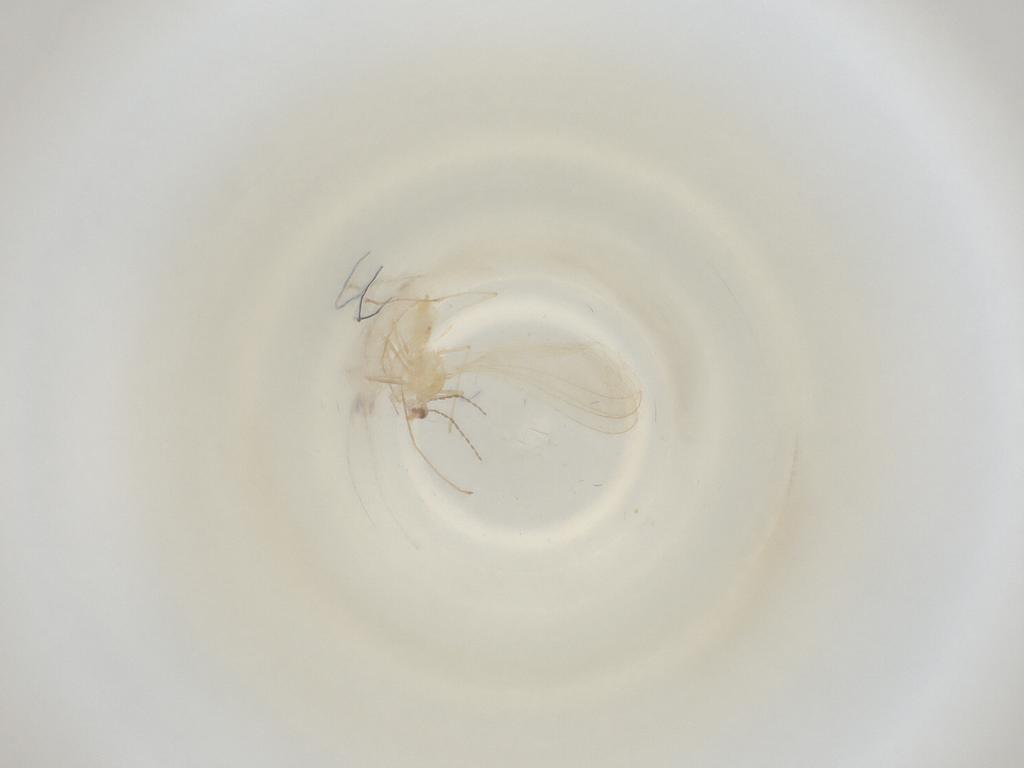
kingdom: Animalia
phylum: Arthropoda
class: Insecta
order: Diptera
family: Cecidomyiidae
